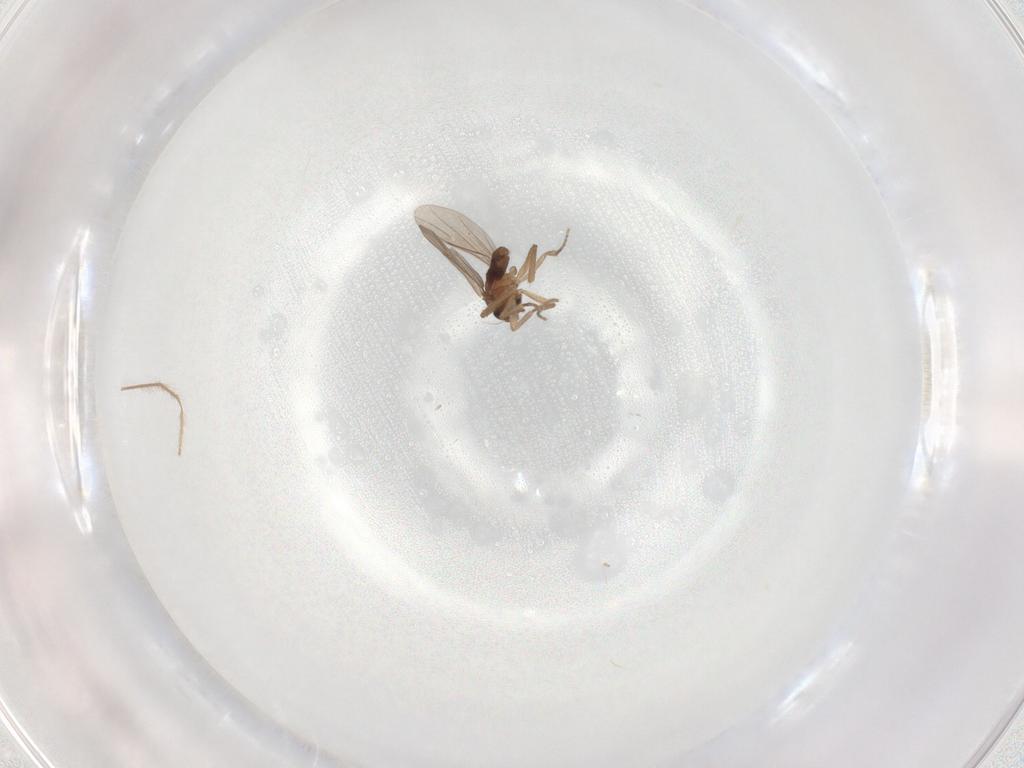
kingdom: Animalia
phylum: Arthropoda
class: Insecta
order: Diptera
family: Phoridae
